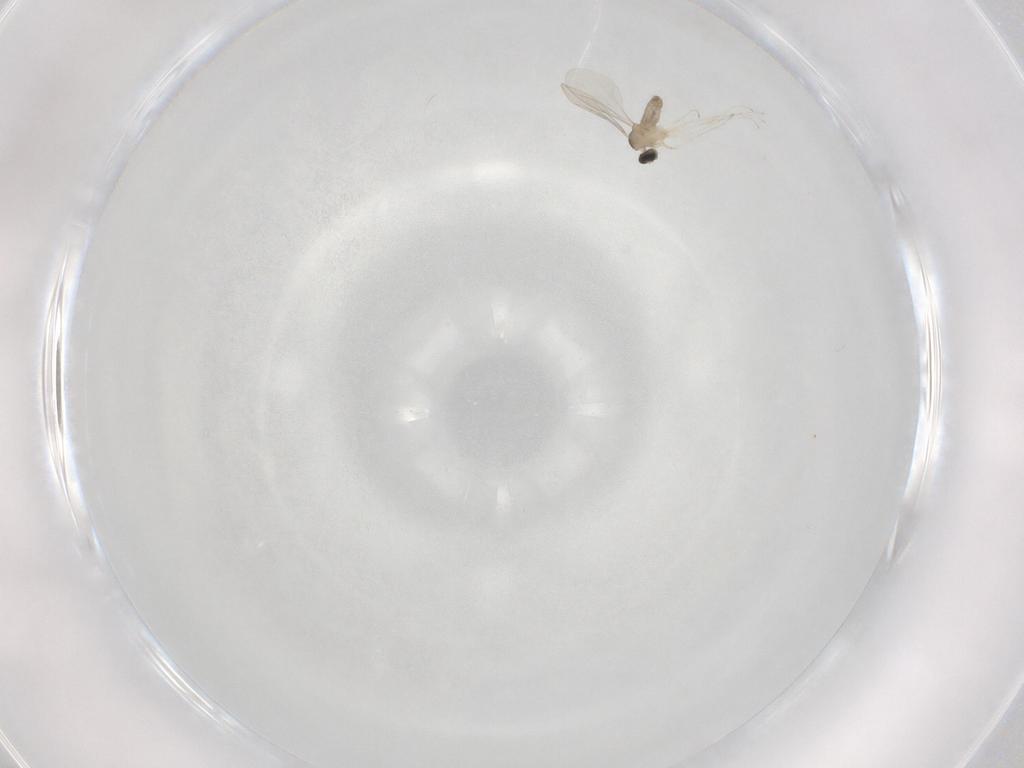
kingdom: Animalia
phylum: Arthropoda
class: Insecta
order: Diptera
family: Cecidomyiidae
